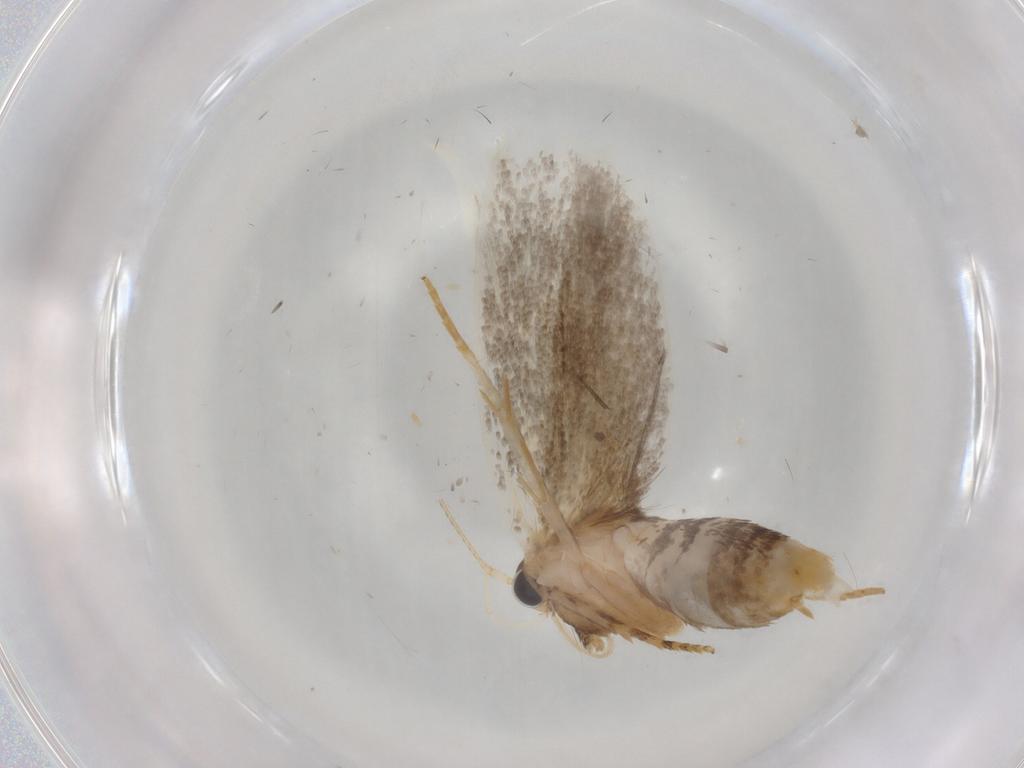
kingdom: Animalia
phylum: Arthropoda
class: Insecta
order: Lepidoptera
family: Oecophoridae
